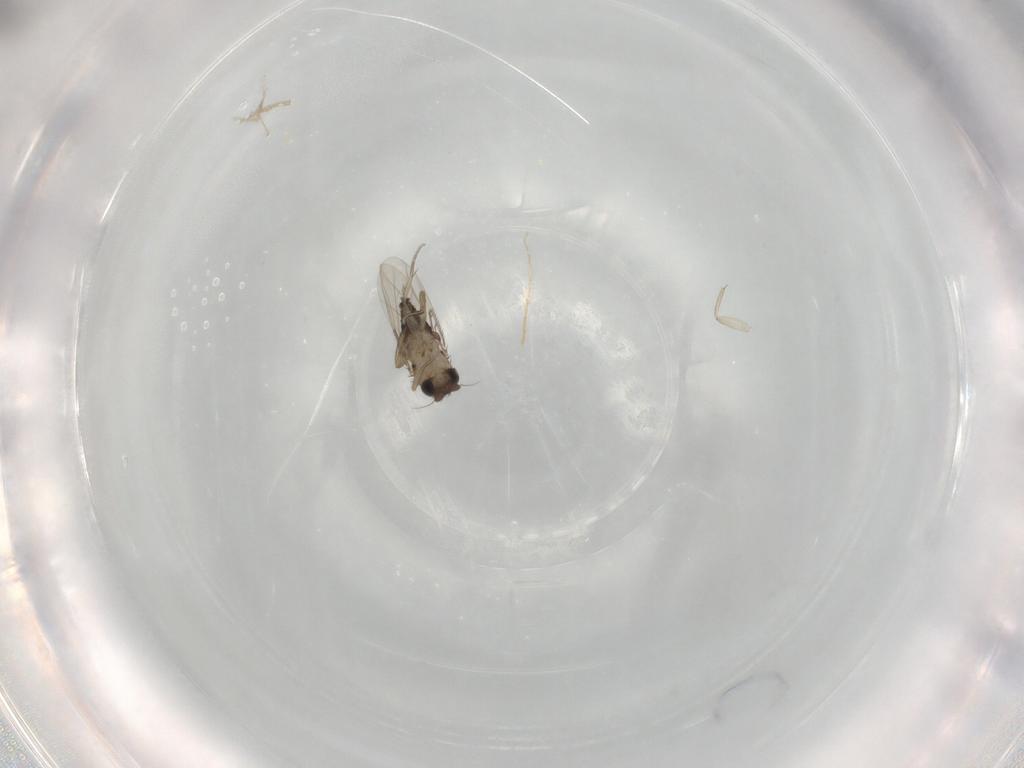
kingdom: Animalia
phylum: Arthropoda
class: Insecta
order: Diptera
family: Phoridae
